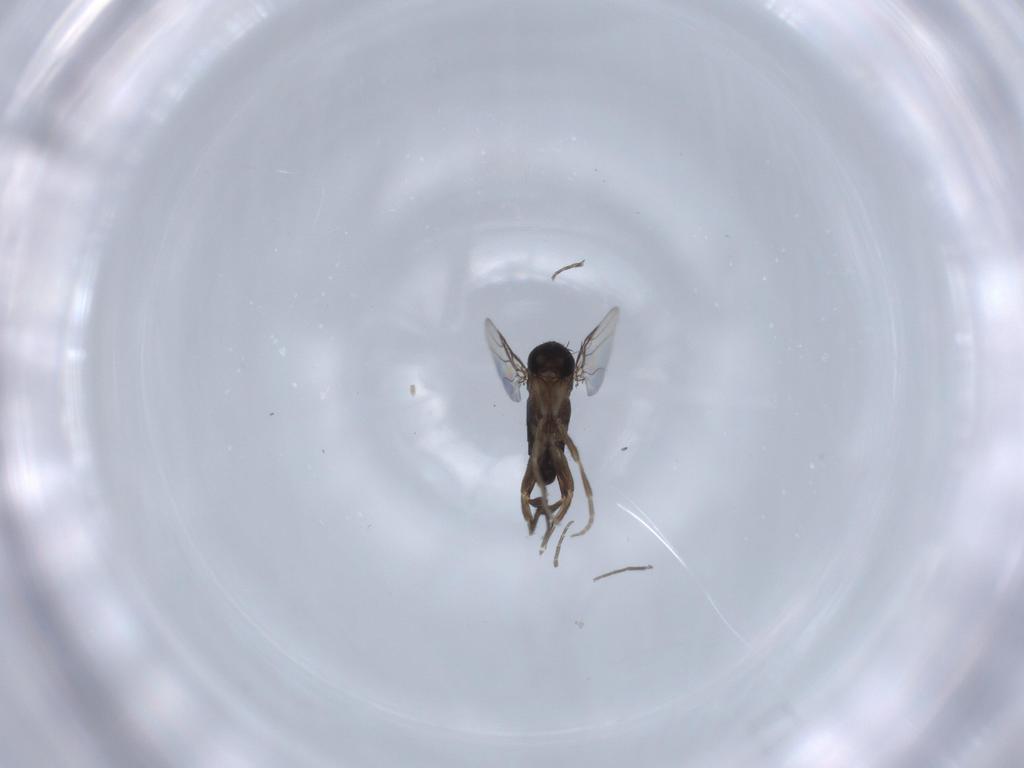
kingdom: Animalia
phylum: Arthropoda
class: Insecta
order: Diptera
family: Phoridae
